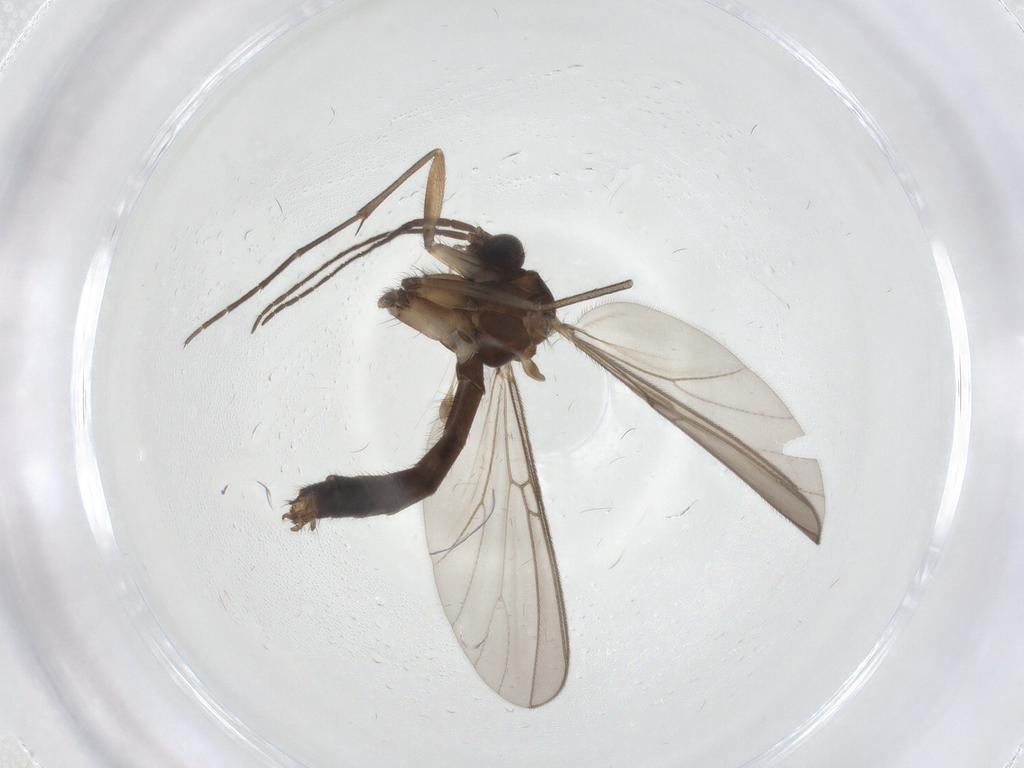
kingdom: Animalia
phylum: Arthropoda
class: Insecta
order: Diptera
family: Mycetophilidae
